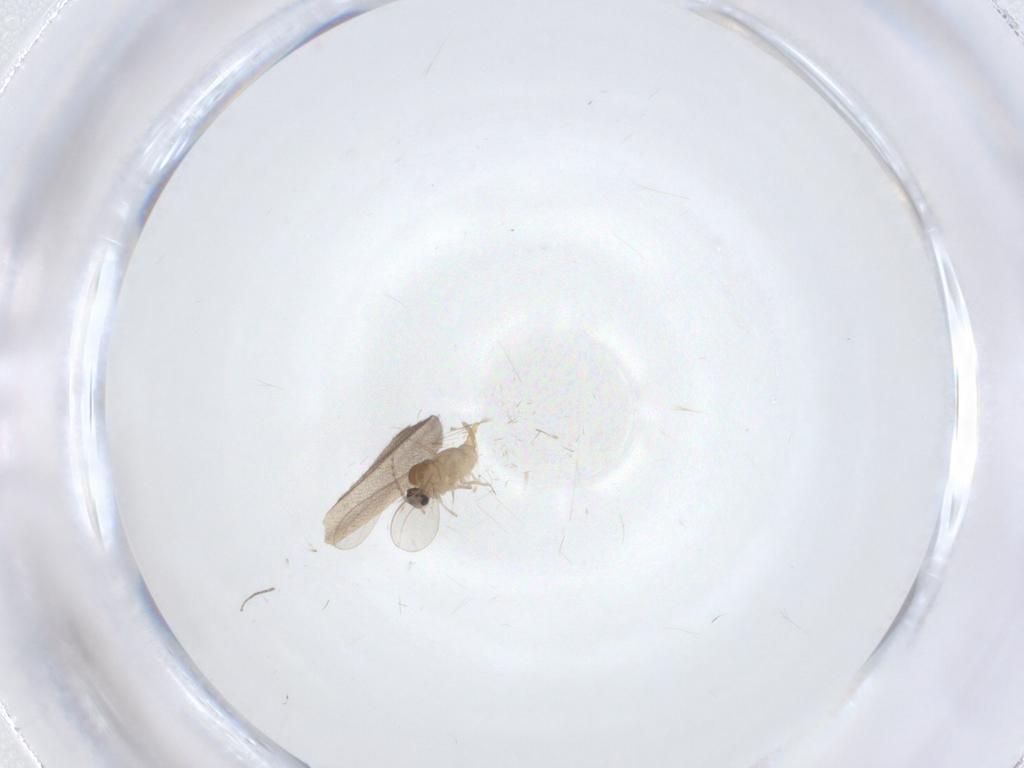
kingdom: Animalia
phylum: Arthropoda
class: Insecta
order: Diptera
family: Cecidomyiidae
